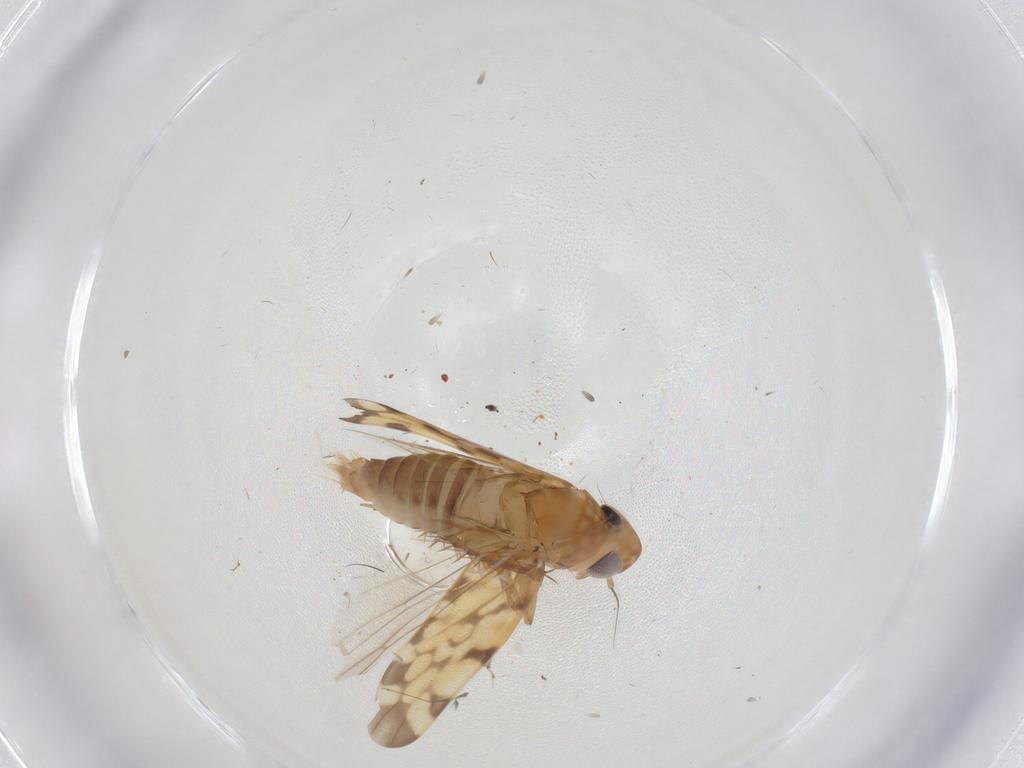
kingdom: Animalia
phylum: Arthropoda
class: Insecta
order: Hemiptera
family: Cicadellidae
